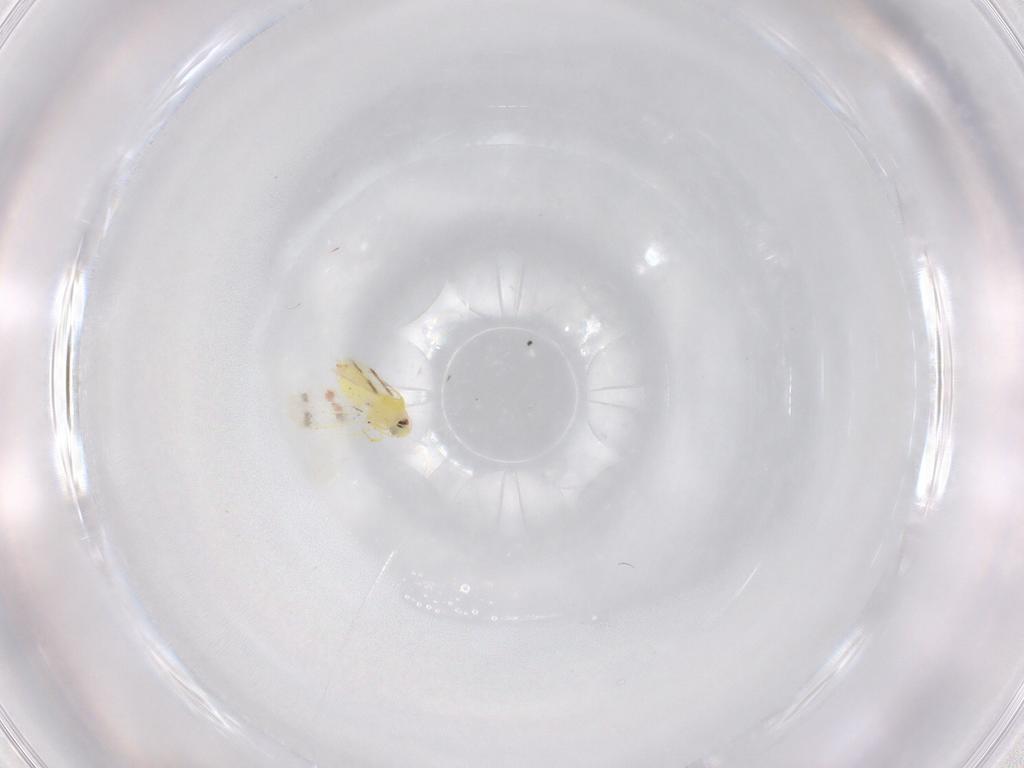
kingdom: Animalia
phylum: Arthropoda
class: Insecta
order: Hemiptera
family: Aleyrodidae
